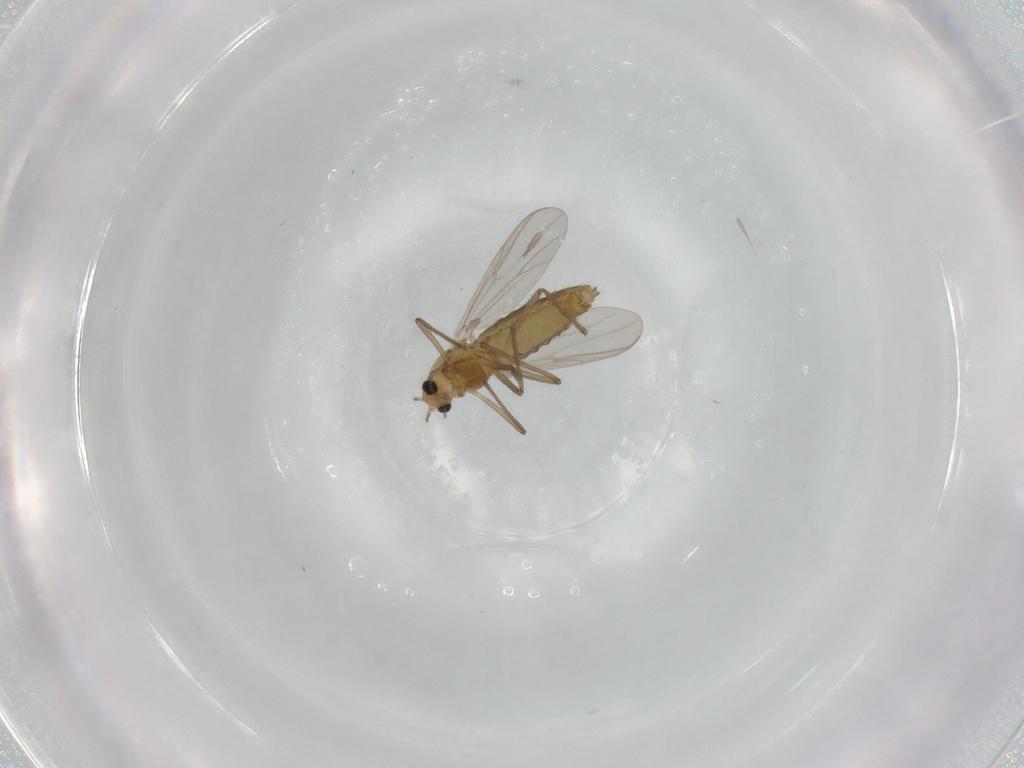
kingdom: Animalia
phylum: Arthropoda
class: Insecta
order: Diptera
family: Chironomidae
